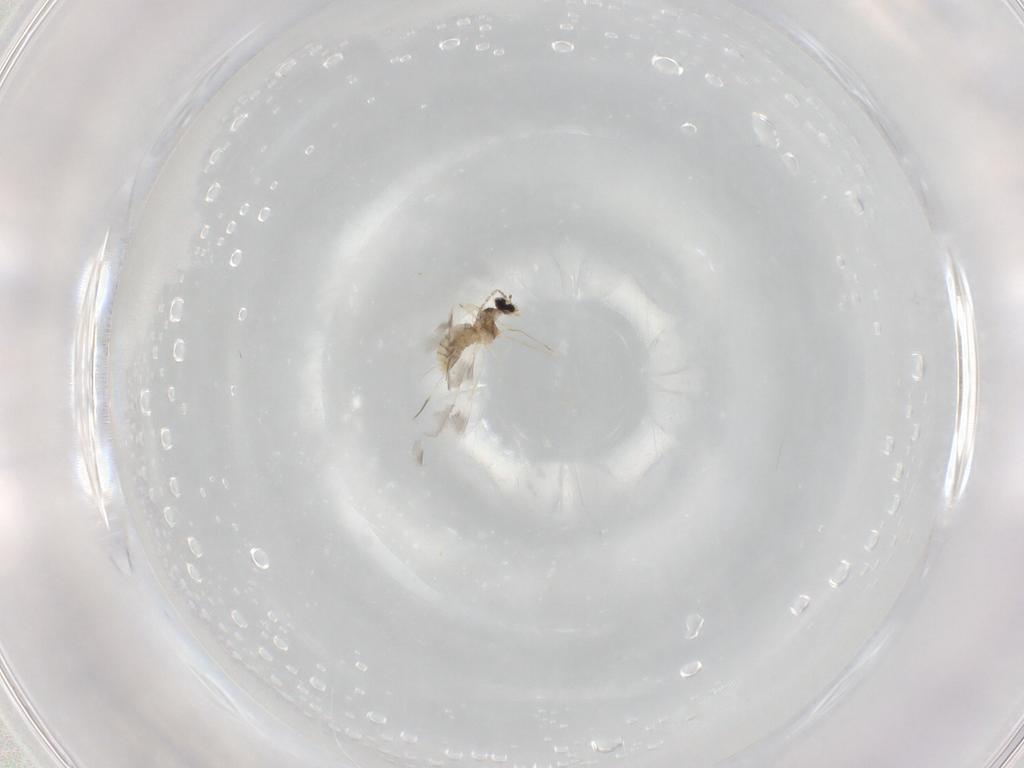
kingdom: Animalia
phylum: Arthropoda
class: Insecta
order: Diptera
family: Cecidomyiidae
